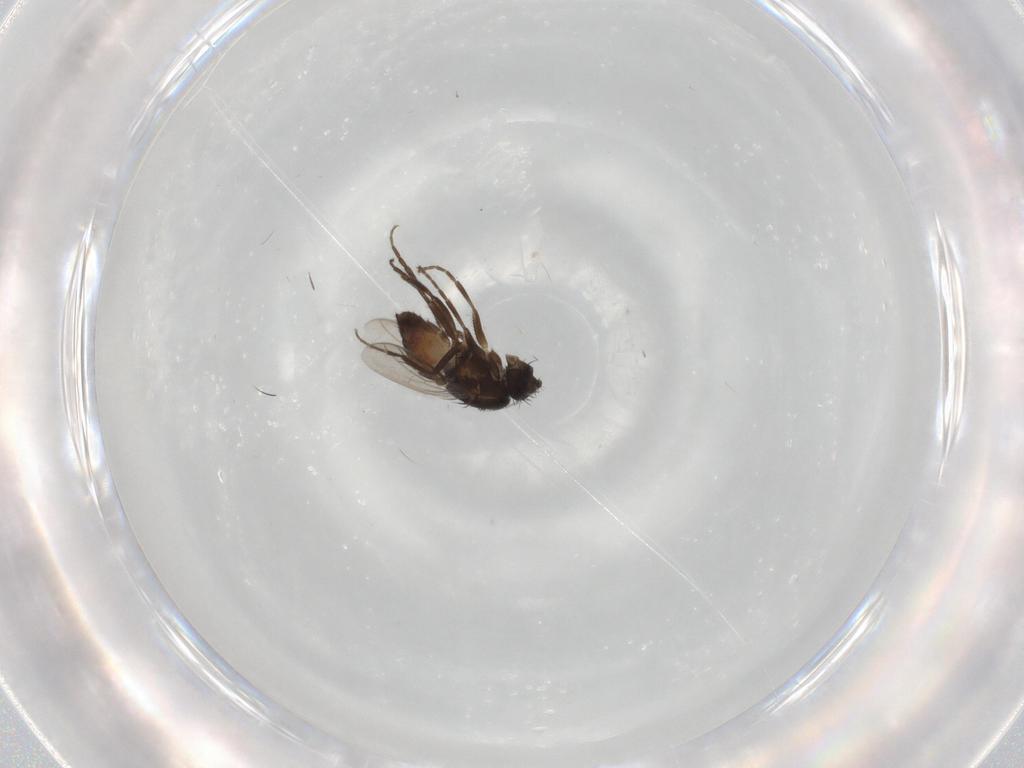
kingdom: Animalia
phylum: Arthropoda
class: Insecta
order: Diptera
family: Sphaeroceridae
